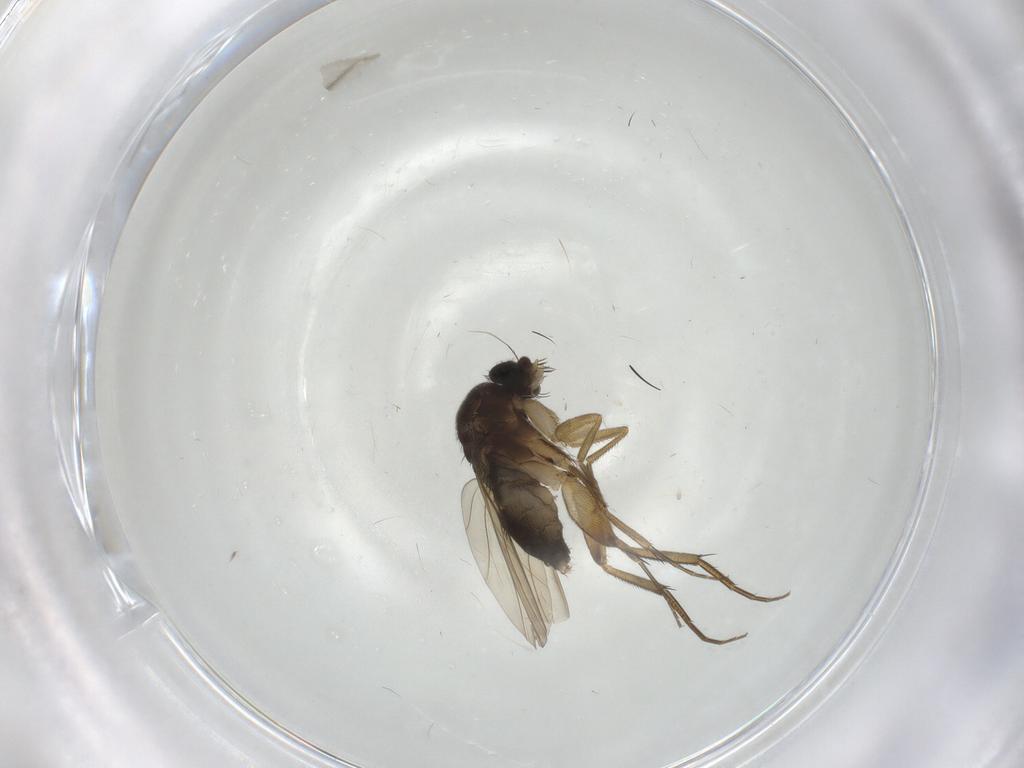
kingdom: Animalia
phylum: Arthropoda
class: Insecta
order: Diptera
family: Phoridae
